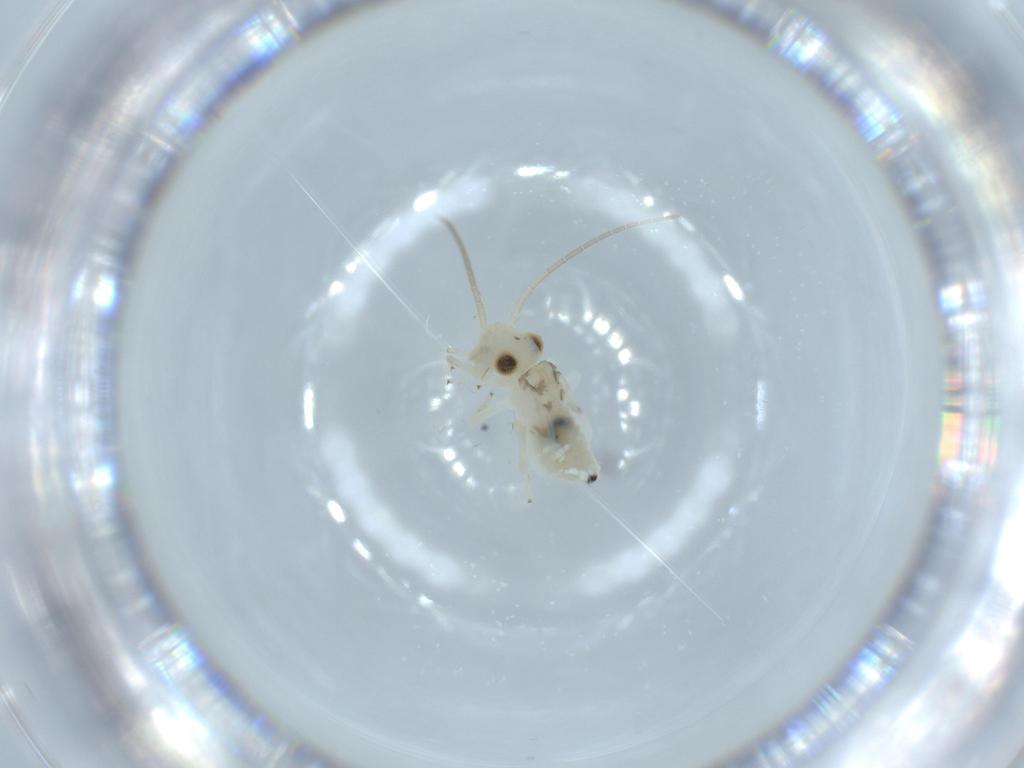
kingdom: Animalia
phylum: Arthropoda
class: Insecta
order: Psocodea
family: Caeciliusidae
